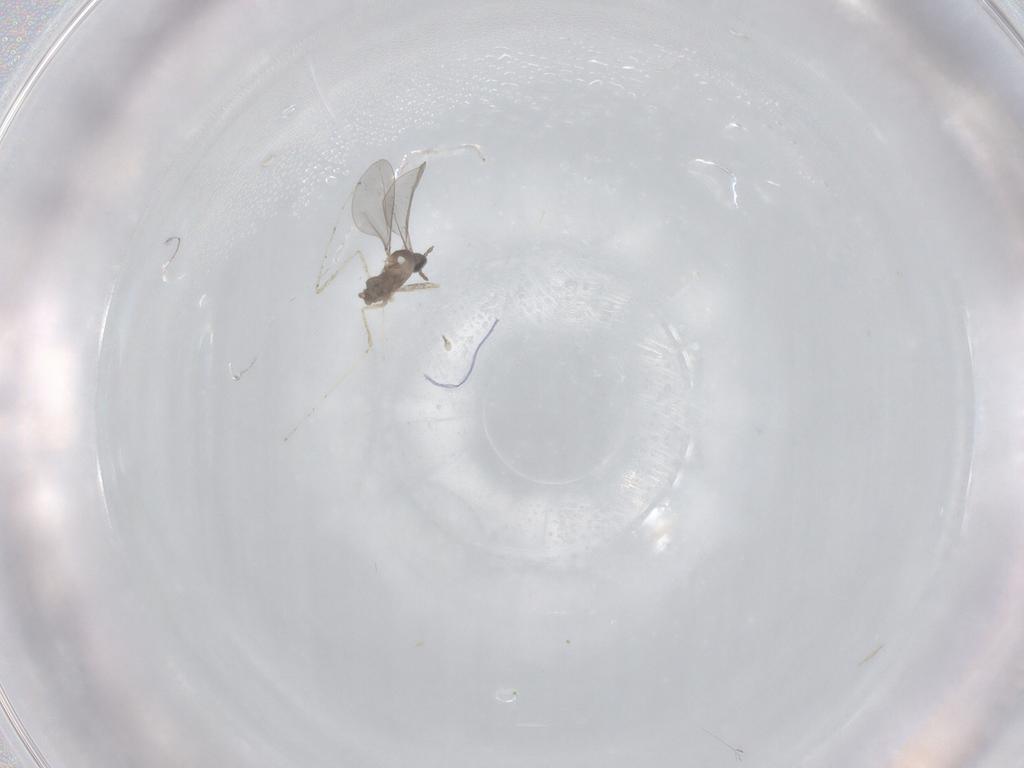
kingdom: Animalia
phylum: Arthropoda
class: Insecta
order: Diptera
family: Cecidomyiidae
